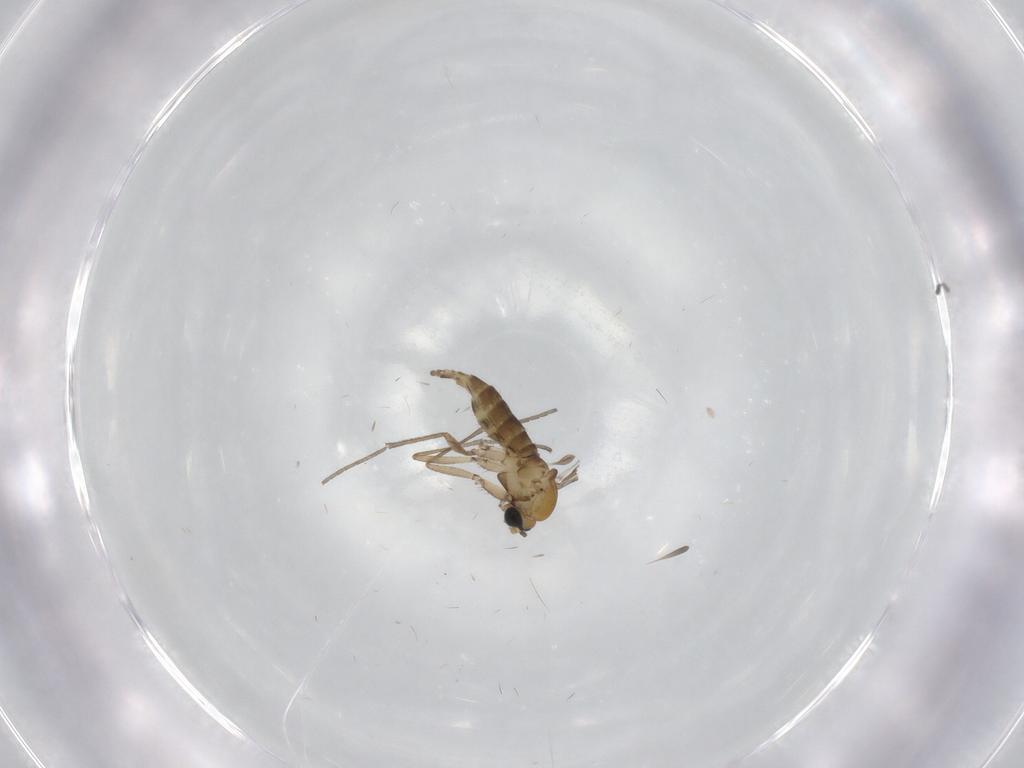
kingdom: Animalia
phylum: Arthropoda
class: Insecta
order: Diptera
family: Sciaridae
